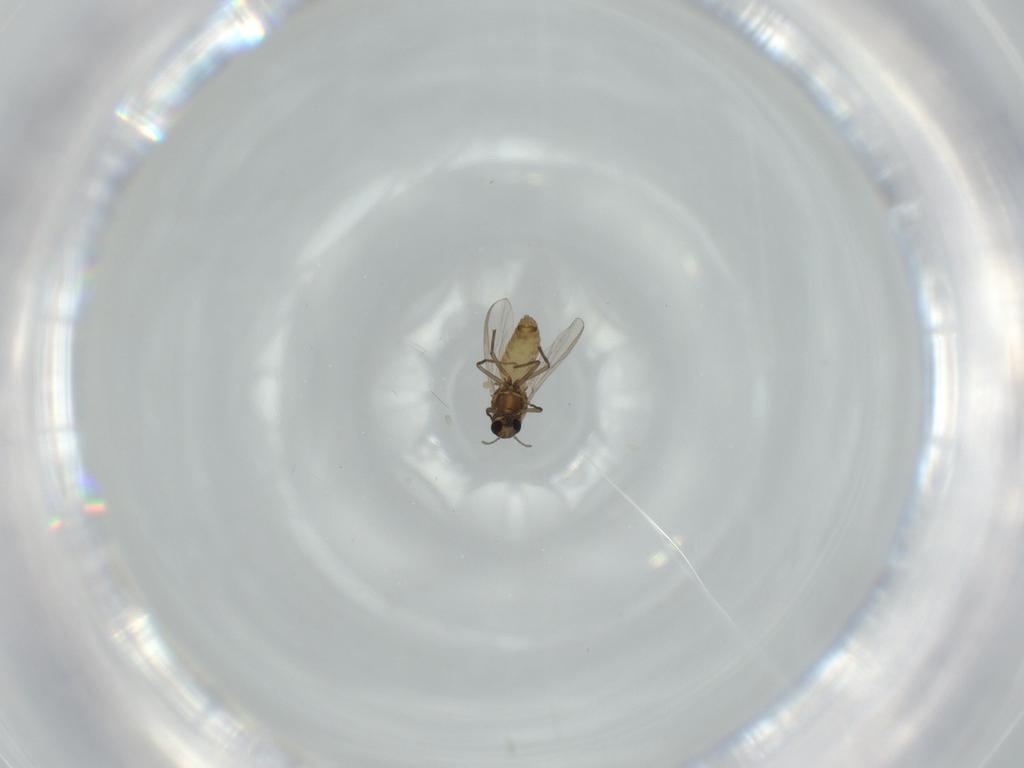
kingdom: Animalia
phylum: Arthropoda
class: Insecta
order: Diptera
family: Chironomidae
